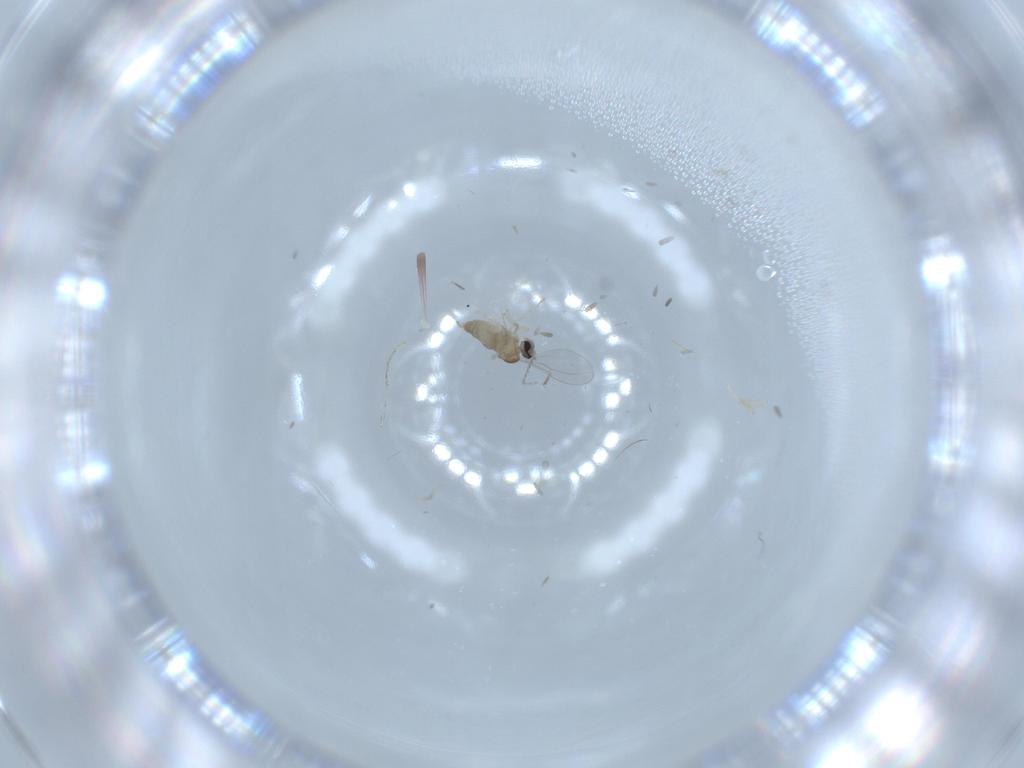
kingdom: Animalia
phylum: Arthropoda
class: Insecta
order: Diptera
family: Cecidomyiidae
